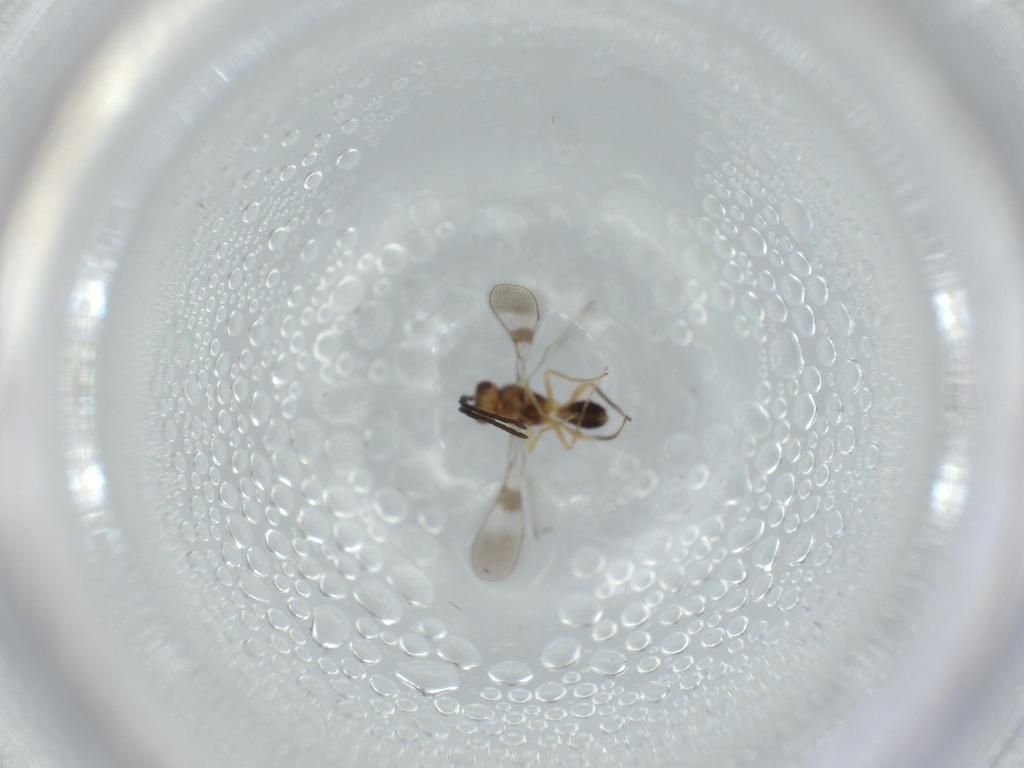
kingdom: Animalia
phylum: Arthropoda
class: Insecta
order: Hymenoptera
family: Mymaridae
